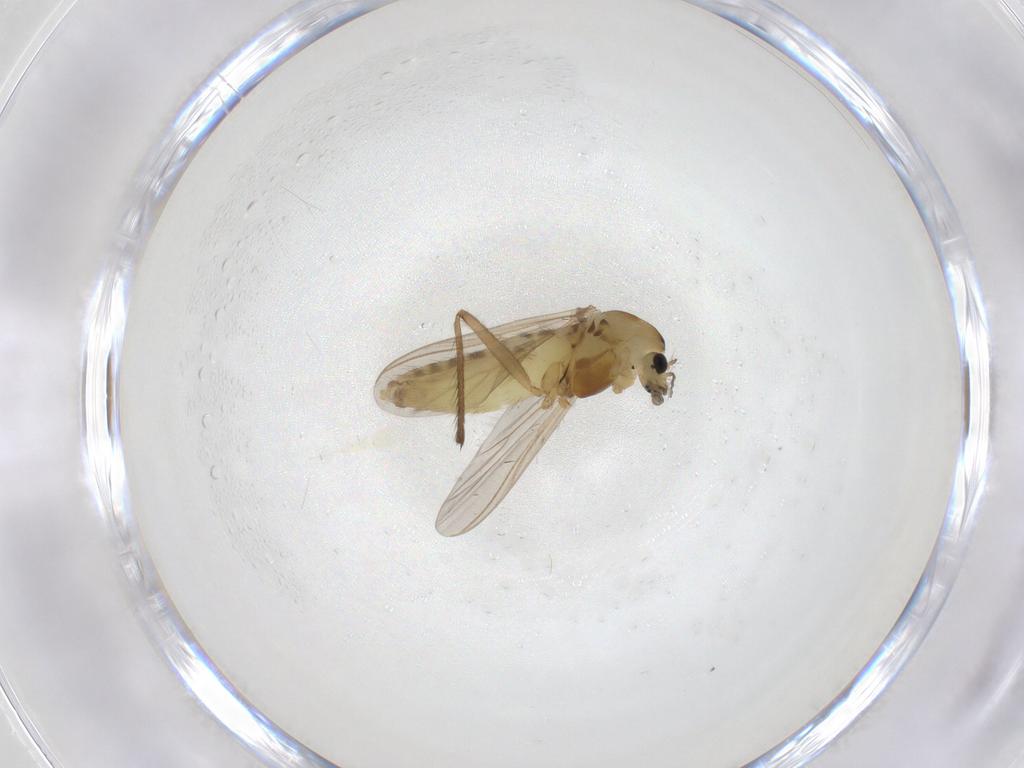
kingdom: Animalia
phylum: Arthropoda
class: Insecta
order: Diptera
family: Chironomidae
